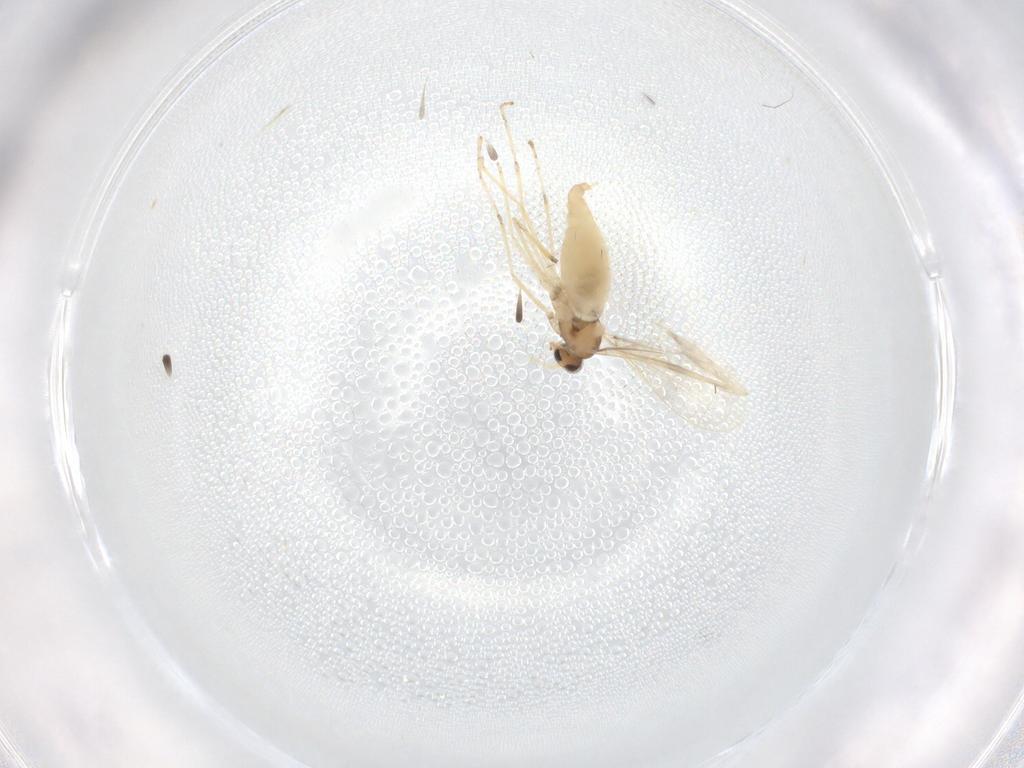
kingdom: Animalia
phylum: Arthropoda
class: Insecta
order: Diptera
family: Cecidomyiidae
